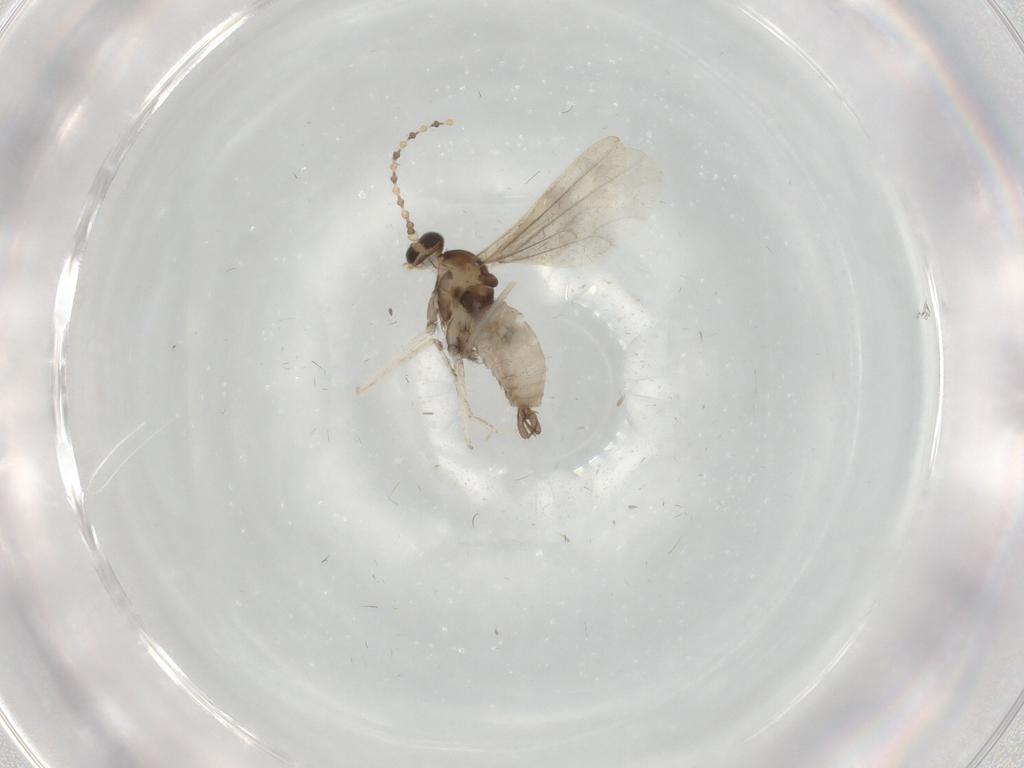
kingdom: Animalia
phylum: Arthropoda
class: Insecta
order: Diptera
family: Cecidomyiidae
